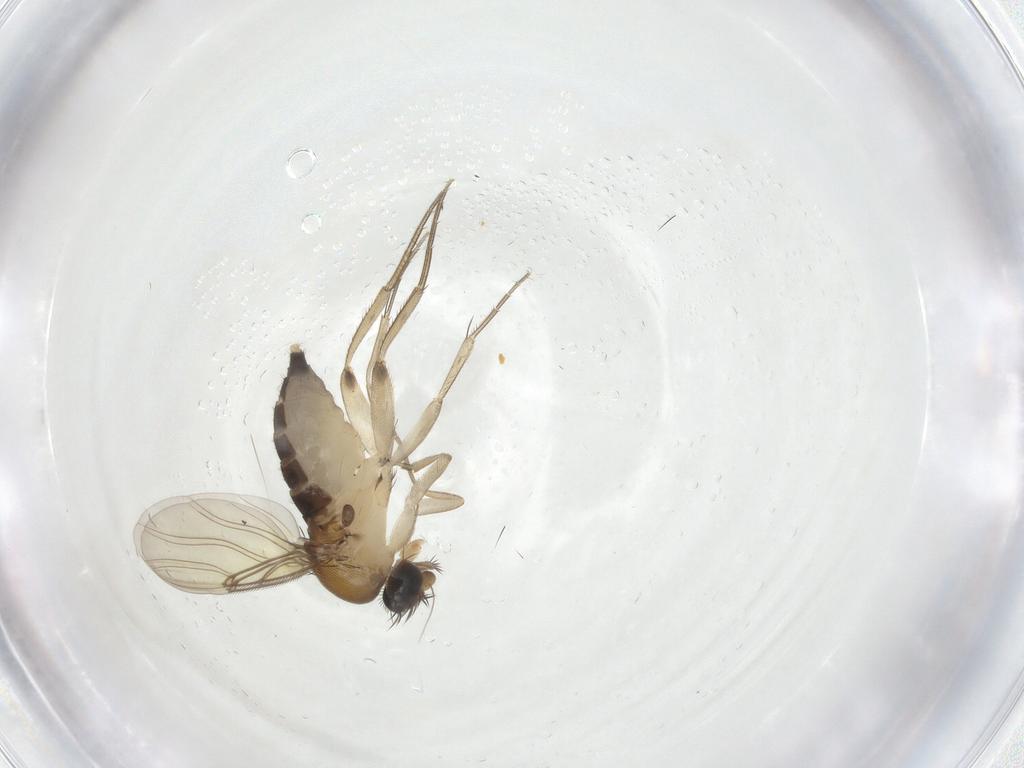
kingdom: Animalia
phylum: Arthropoda
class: Insecta
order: Diptera
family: Phoridae
